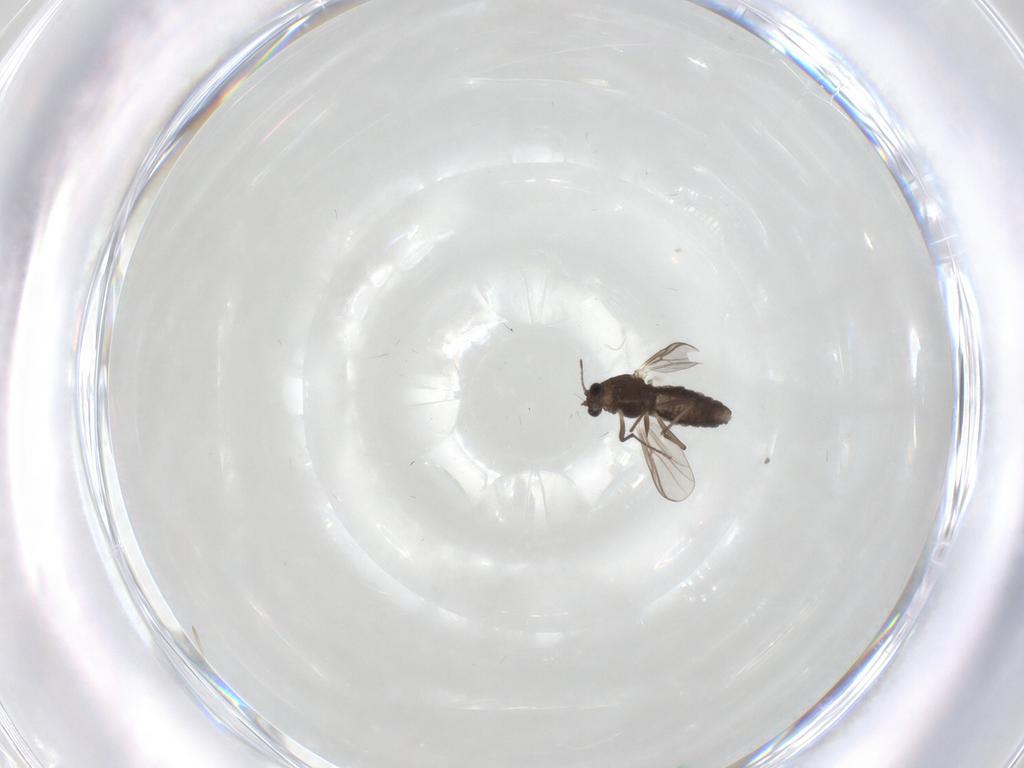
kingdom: Animalia
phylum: Arthropoda
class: Insecta
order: Diptera
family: Chironomidae
